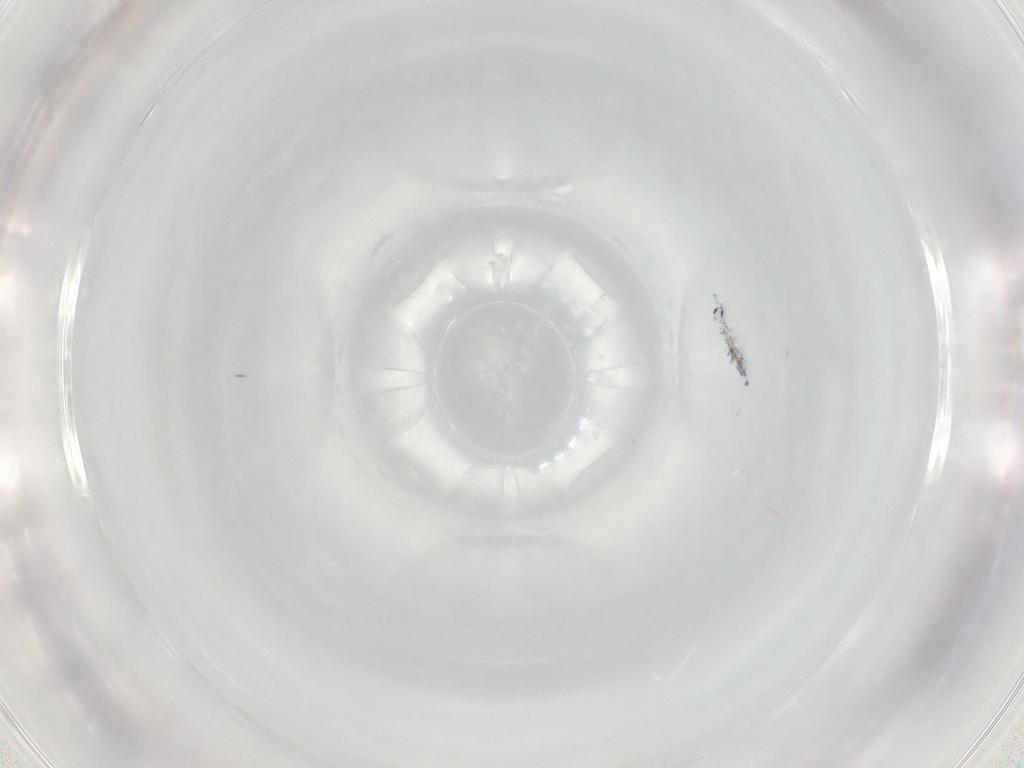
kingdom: Animalia
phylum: Arthropoda
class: Collembola
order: Entomobryomorpha
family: Entomobryidae
